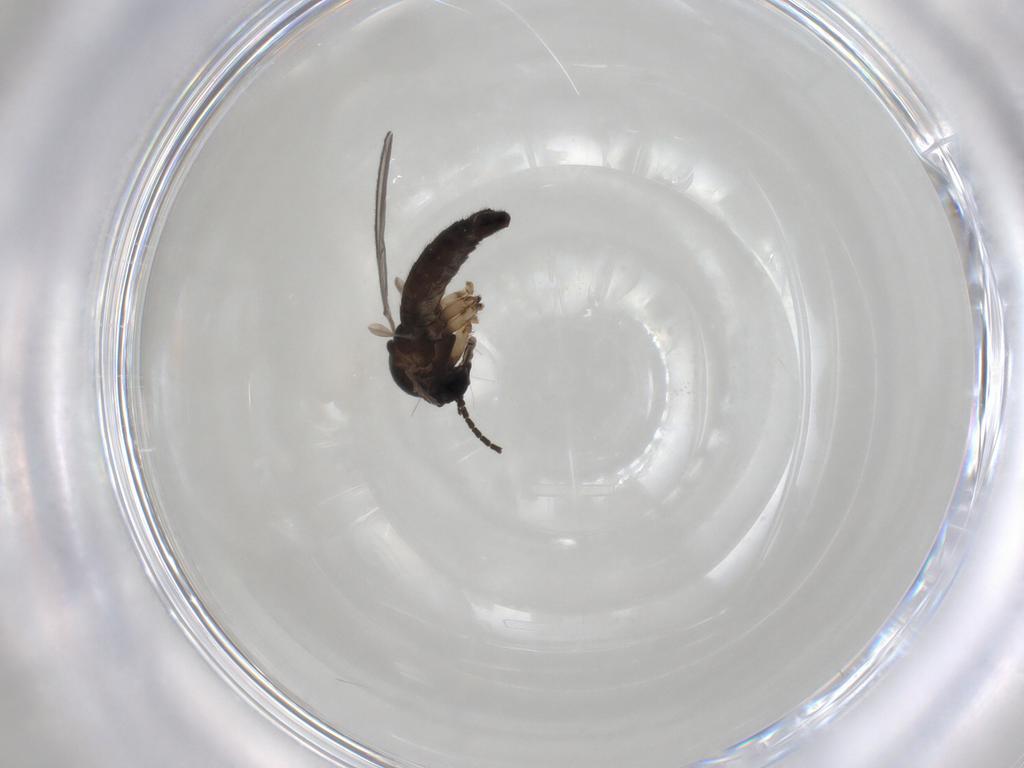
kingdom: Animalia
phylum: Arthropoda
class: Insecta
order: Diptera
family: Sciaridae
